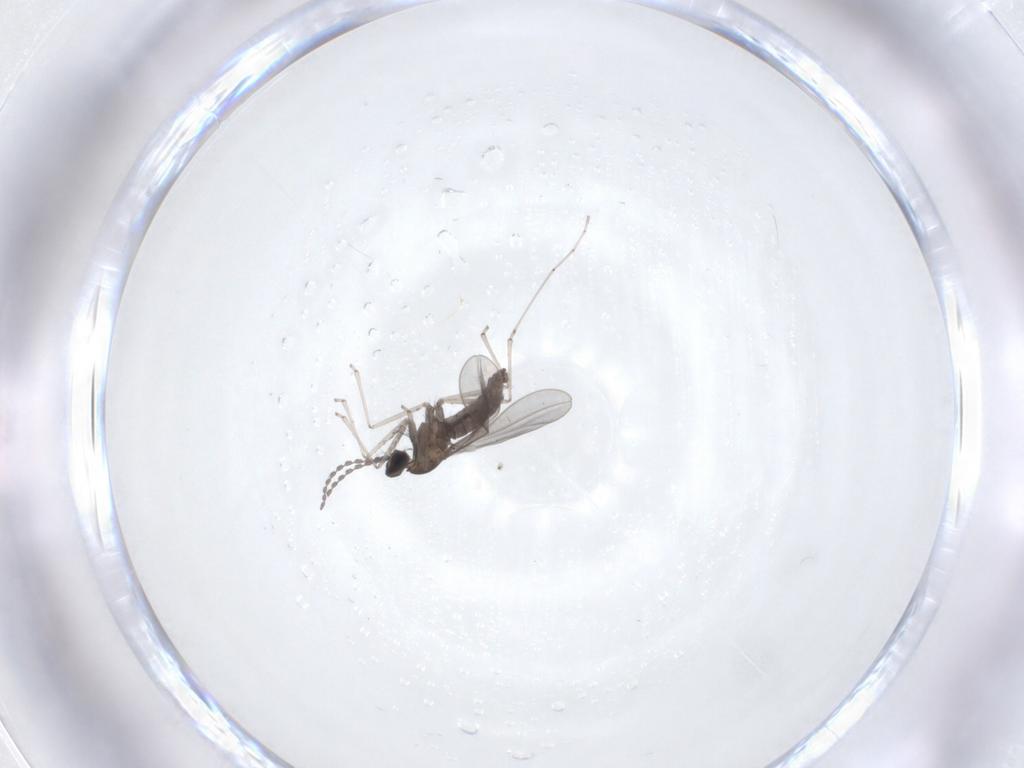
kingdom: Animalia
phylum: Arthropoda
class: Insecta
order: Diptera
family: Cecidomyiidae
